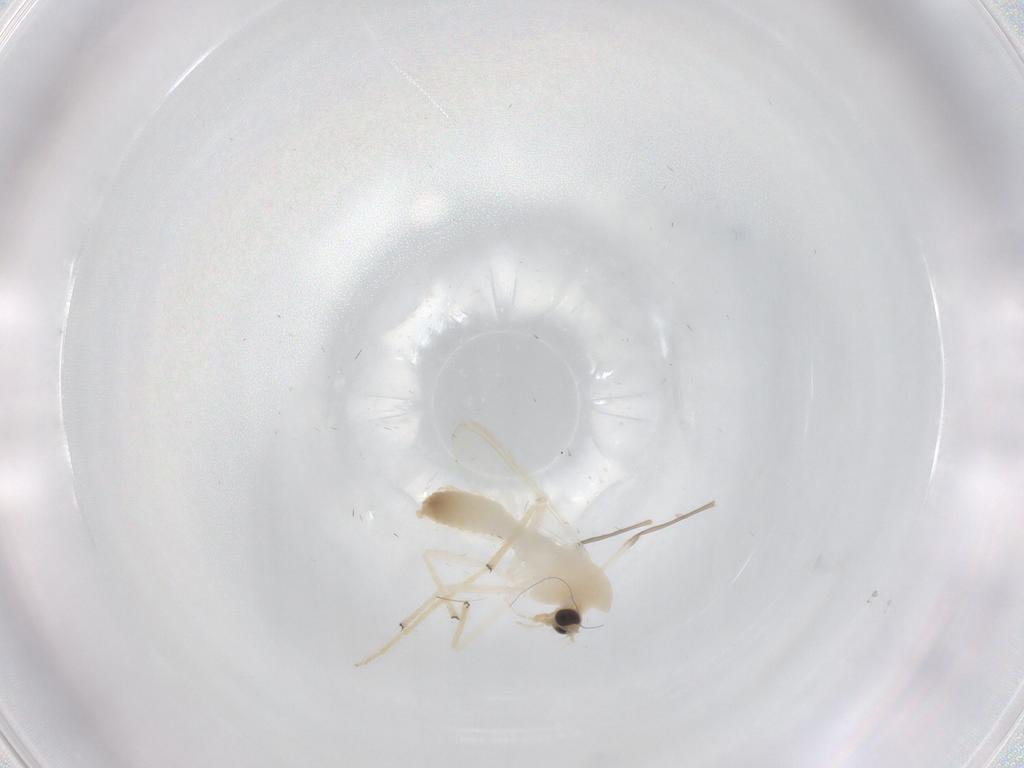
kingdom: Animalia
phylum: Arthropoda
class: Insecta
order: Diptera
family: Chironomidae
